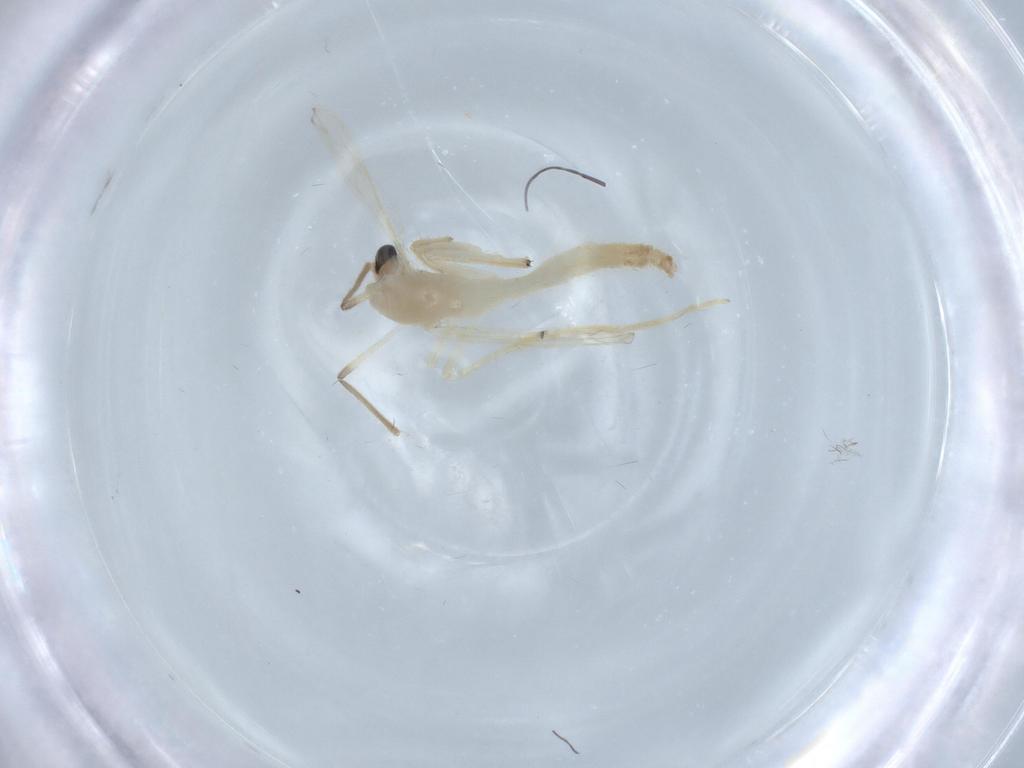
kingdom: Animalia
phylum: Arthropoda
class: Insecta
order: Diptera
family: Chironomidae
